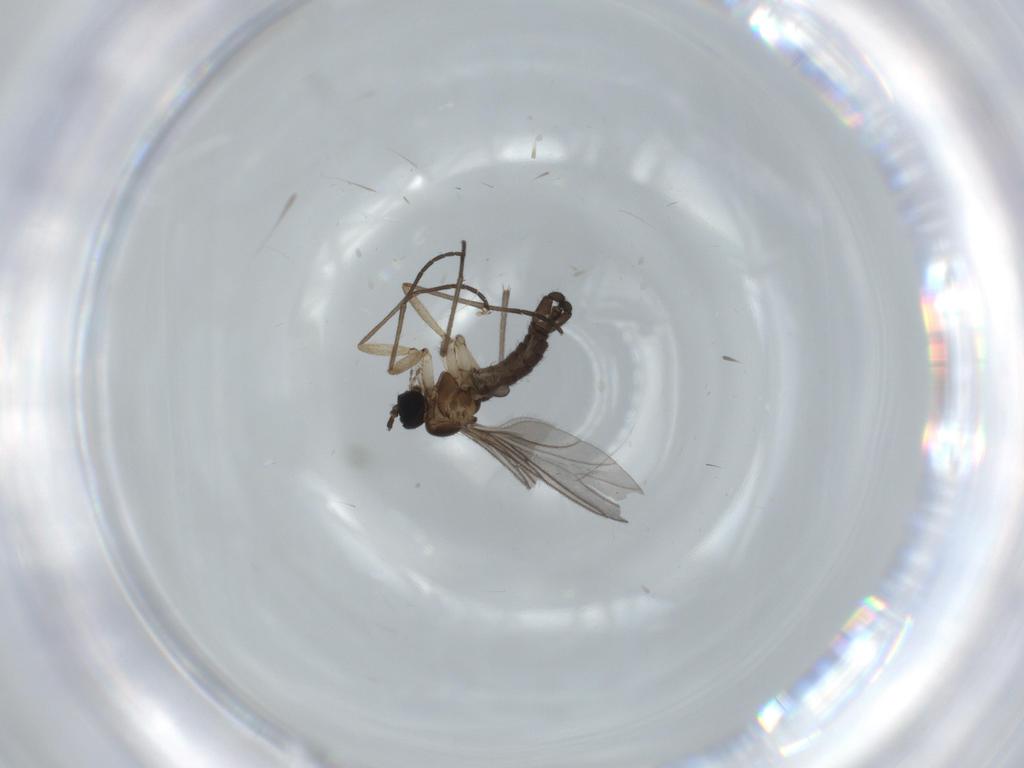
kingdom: Animalia
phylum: Arthropoda
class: Insecta
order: Diptera
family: Sciaridae
